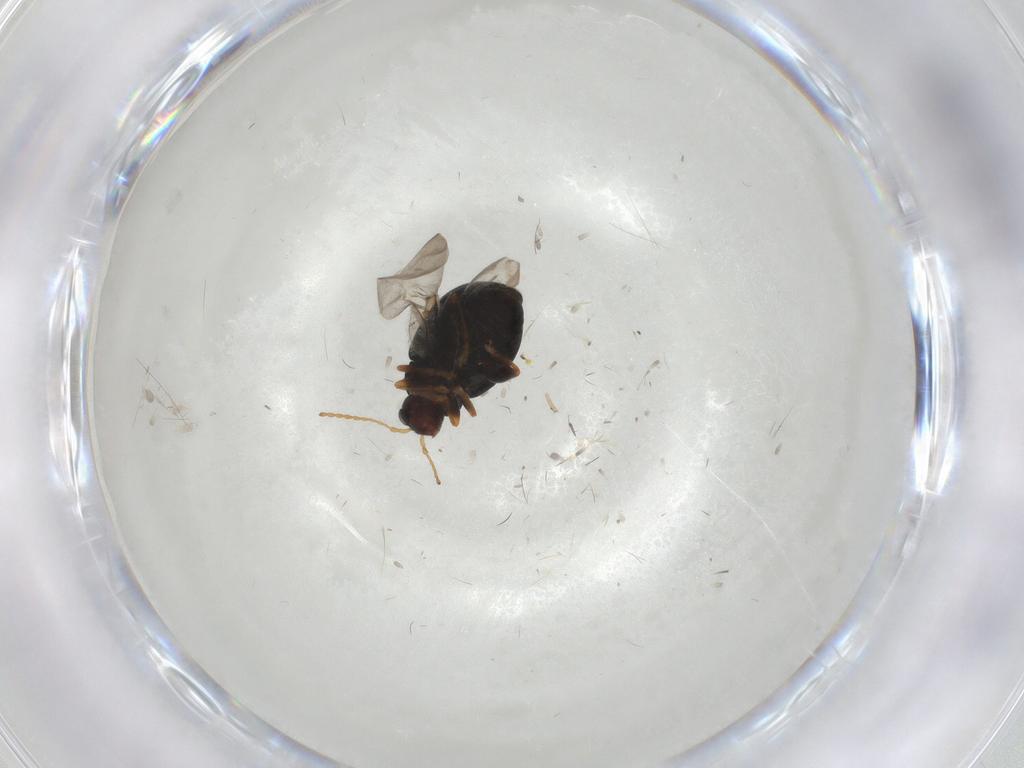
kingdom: Animalia
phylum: Arthropoda
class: Insecta
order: Coleoptera
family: Chrysomelidae
